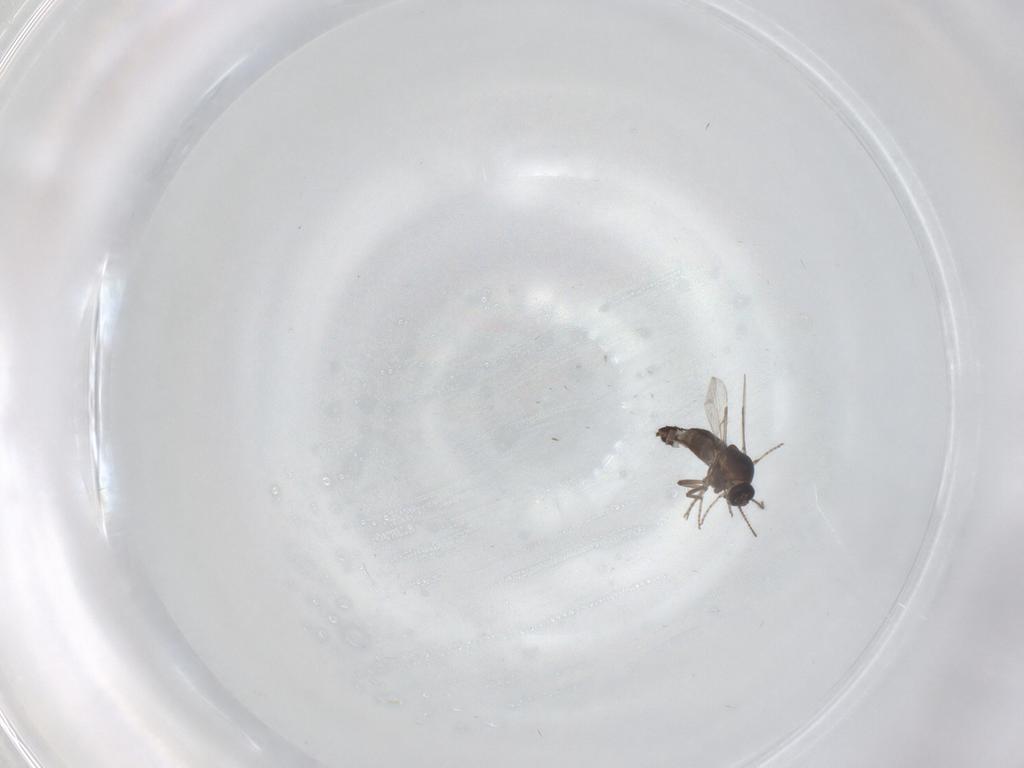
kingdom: Animalia
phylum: Arthropoda
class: Insecta
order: Diptera
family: Ceratopogonidae
